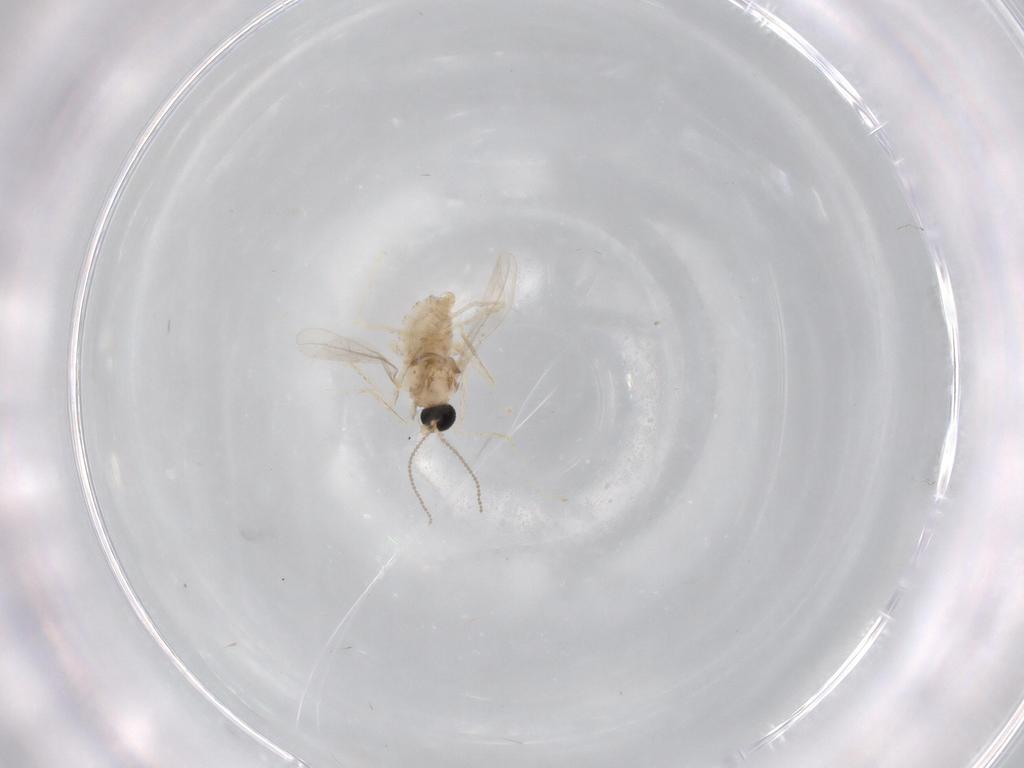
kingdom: Animalia
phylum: Arthropoda
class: Insecta
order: Diptera
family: Cecidomyiidae
